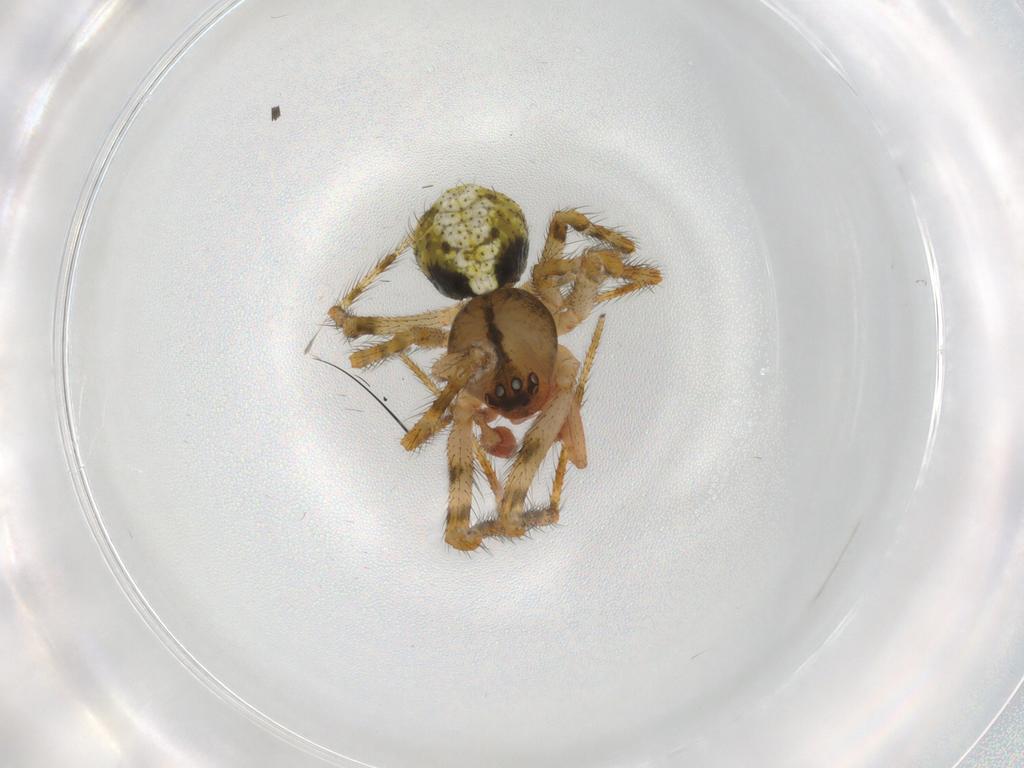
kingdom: Animalia
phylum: Arthropoda
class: Arachnida
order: Araneae
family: Theridiidae
